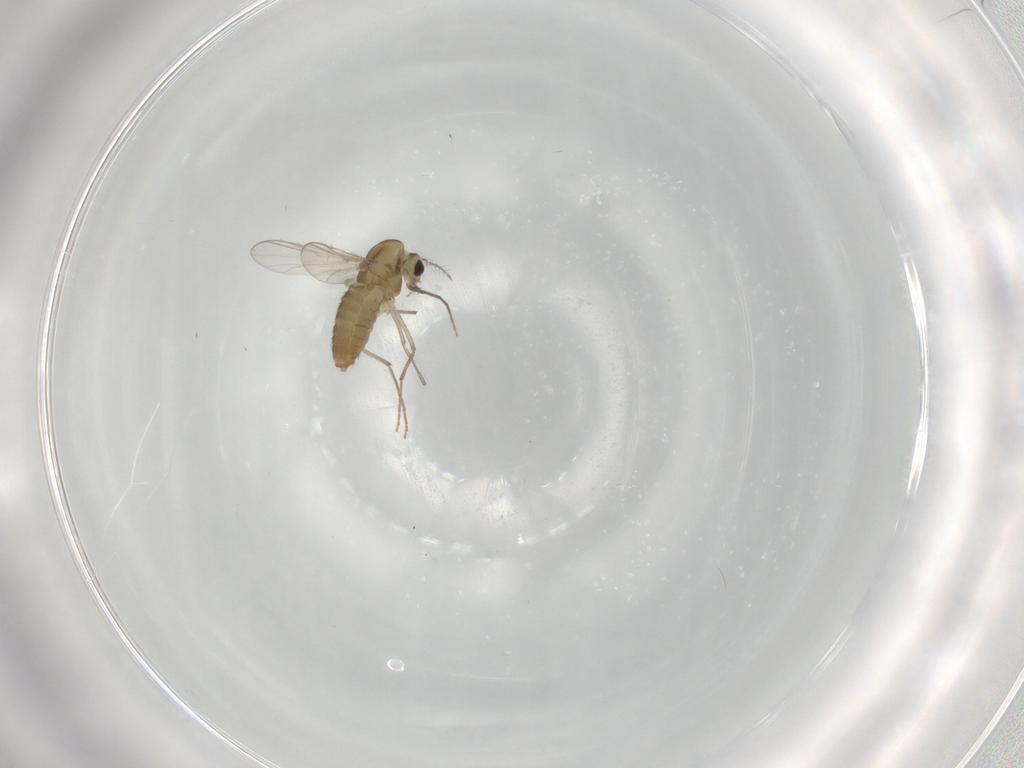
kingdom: Animalia
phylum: Arthropoda
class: Insecta
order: Diptera
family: Chironomidae
